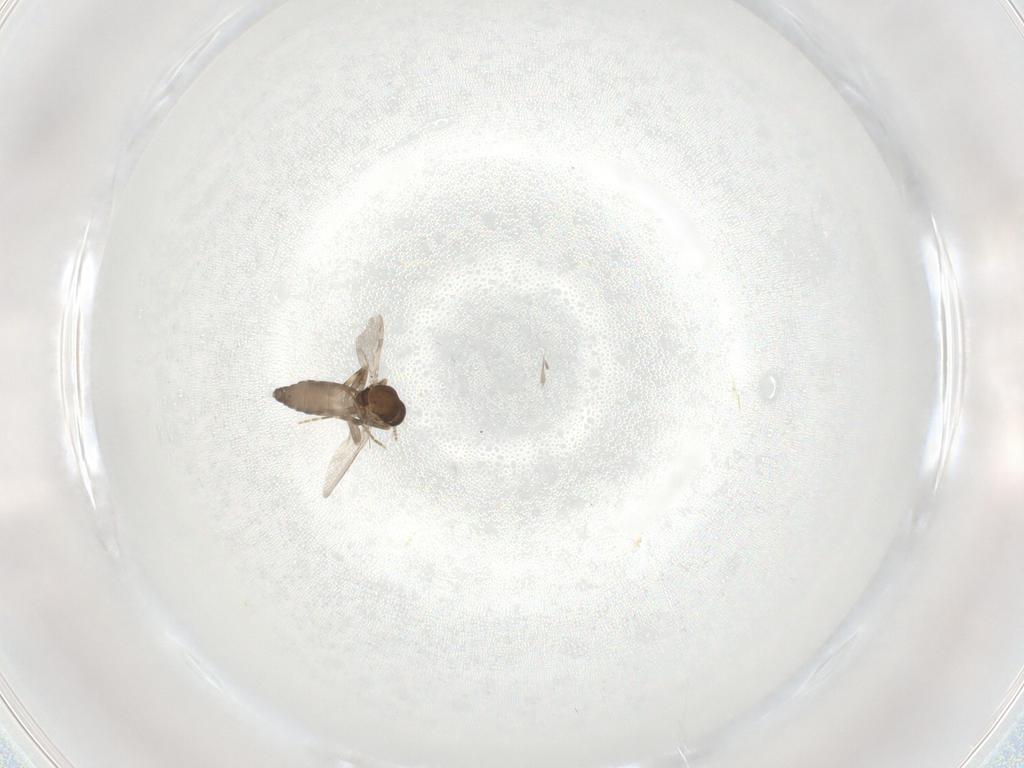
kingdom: Animalia
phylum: Arthropoda
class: Insecta
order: Diptera
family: Ceratopogonidae
